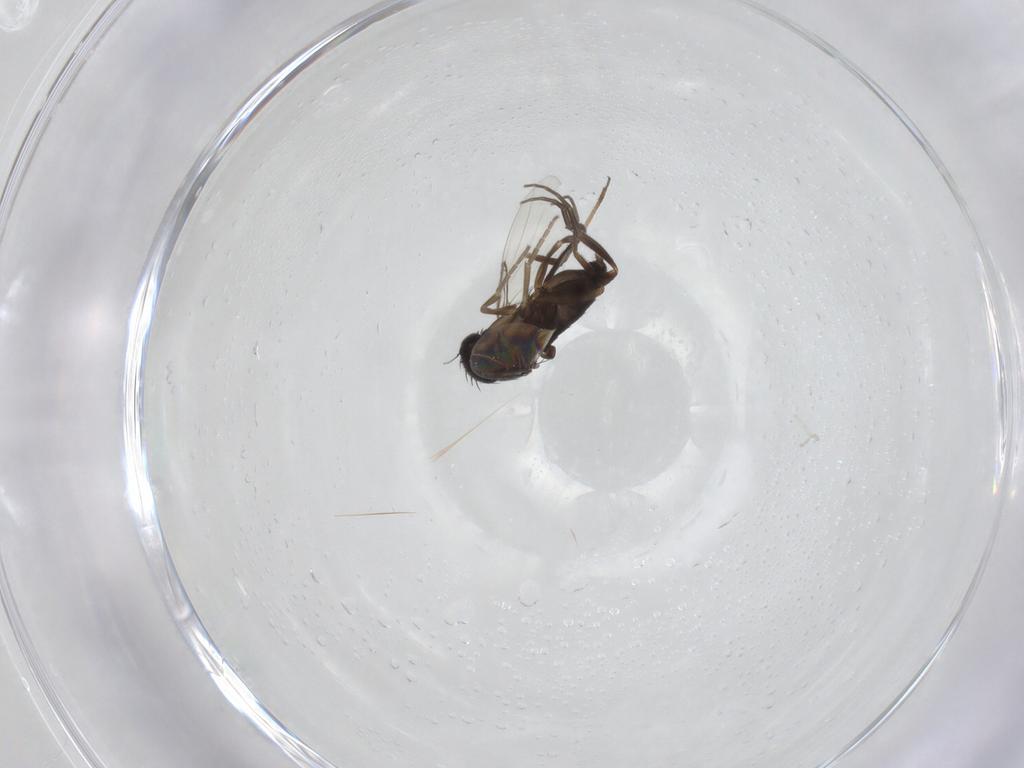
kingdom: Animalia
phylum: Arthropoda
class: Insecta
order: Diptera
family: Phoridae
